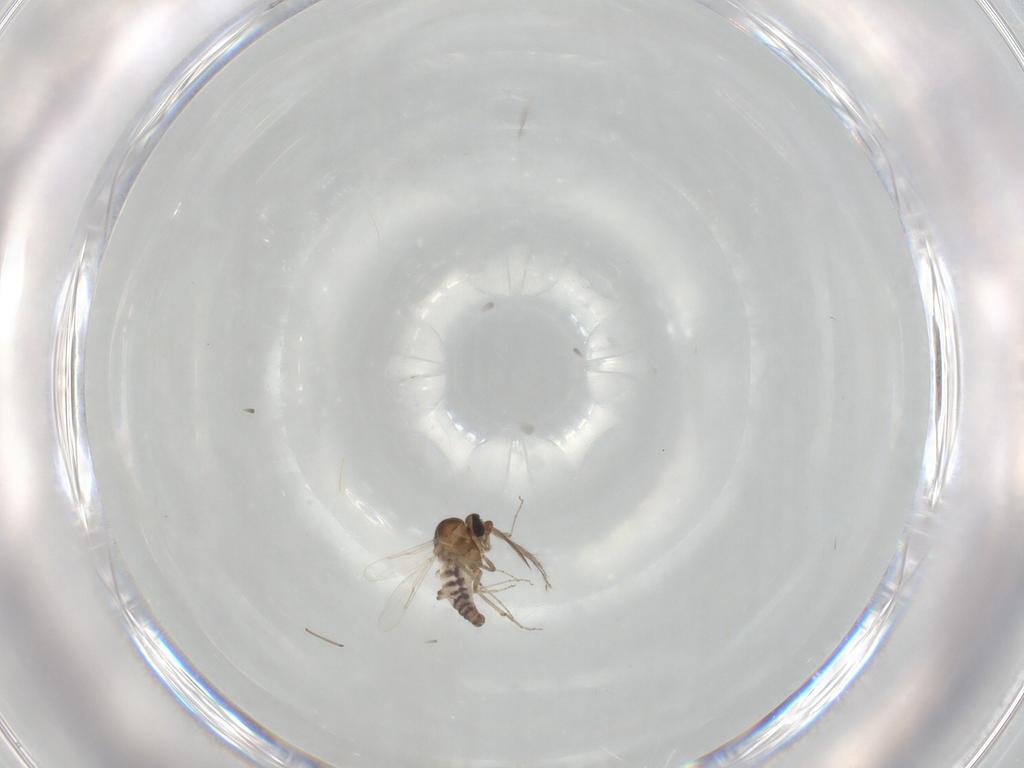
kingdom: Animalia
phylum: Arthropoda
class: Insecta
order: Diptera
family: Ceratopogonidae
